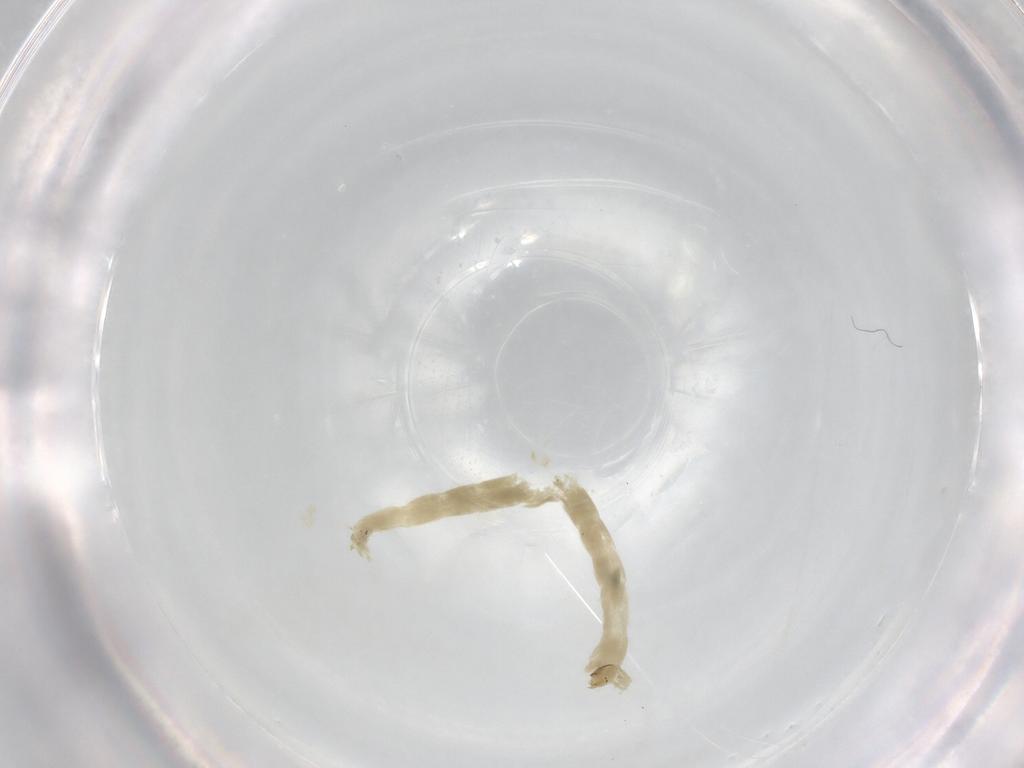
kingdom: Animalia
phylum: Arthropoda
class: Insecta
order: Diptera
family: Chironomidae
